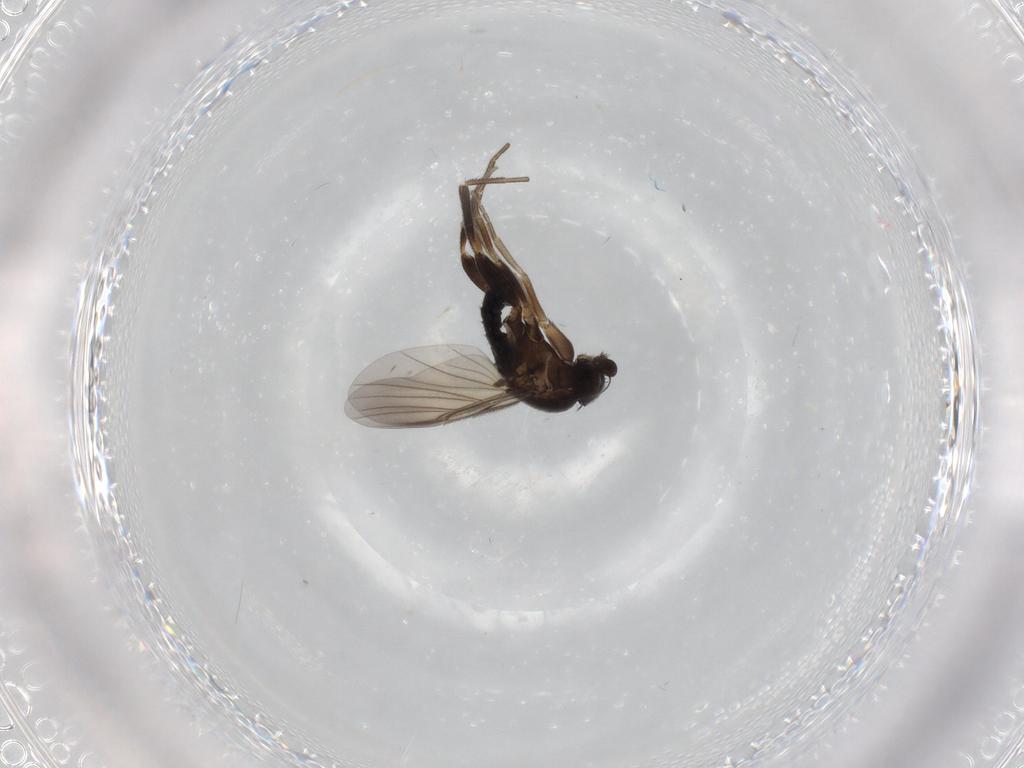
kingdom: Animalia
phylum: Arthropoda
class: Insecta
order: Diptera
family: Phoridae
